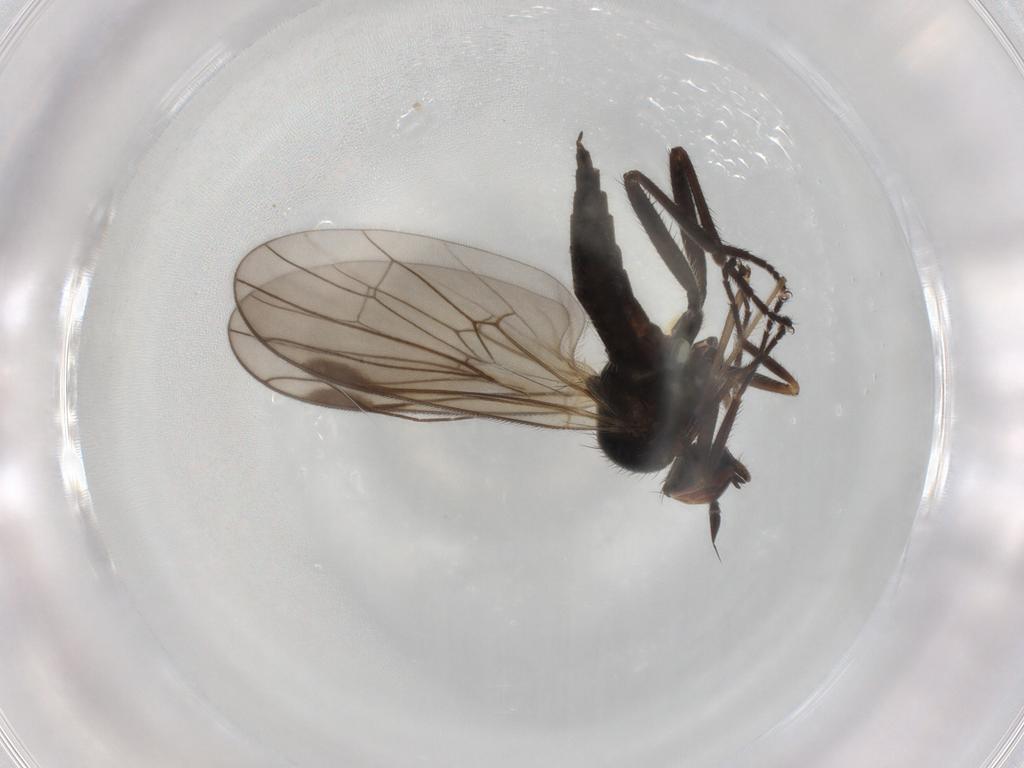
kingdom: Animalia
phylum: Arthropoda
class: Insecta
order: Diptera
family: Hybotidae
